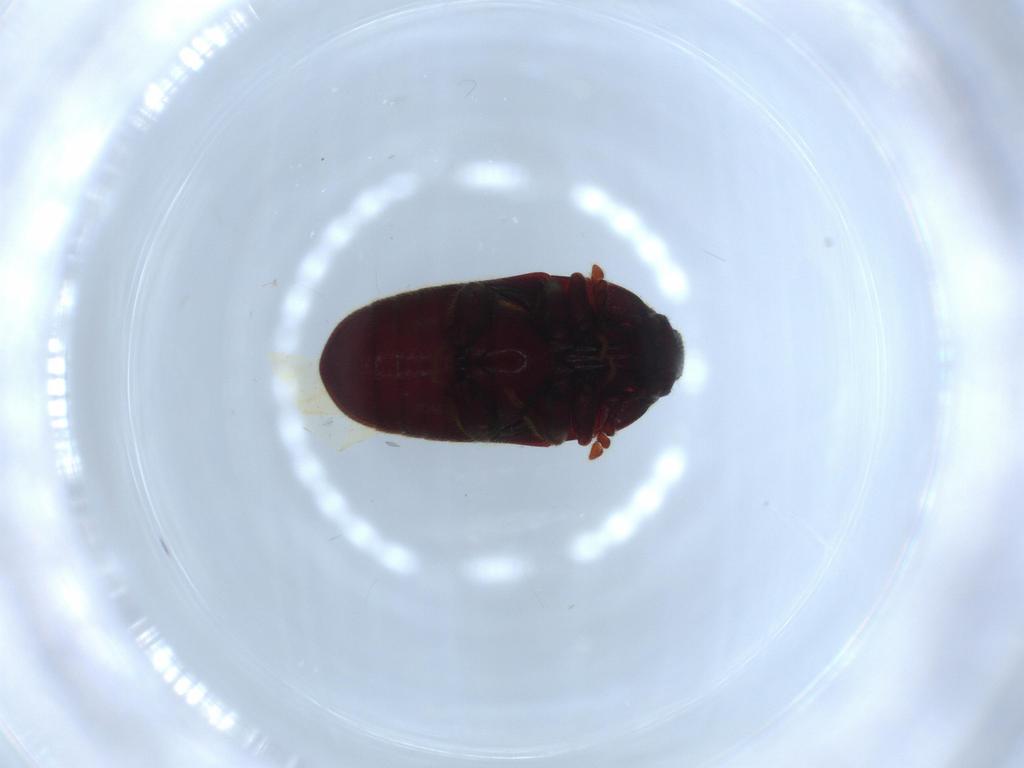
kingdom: Animalia
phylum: Arthropoda
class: Insecta
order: Coleoptera
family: Throscidae
